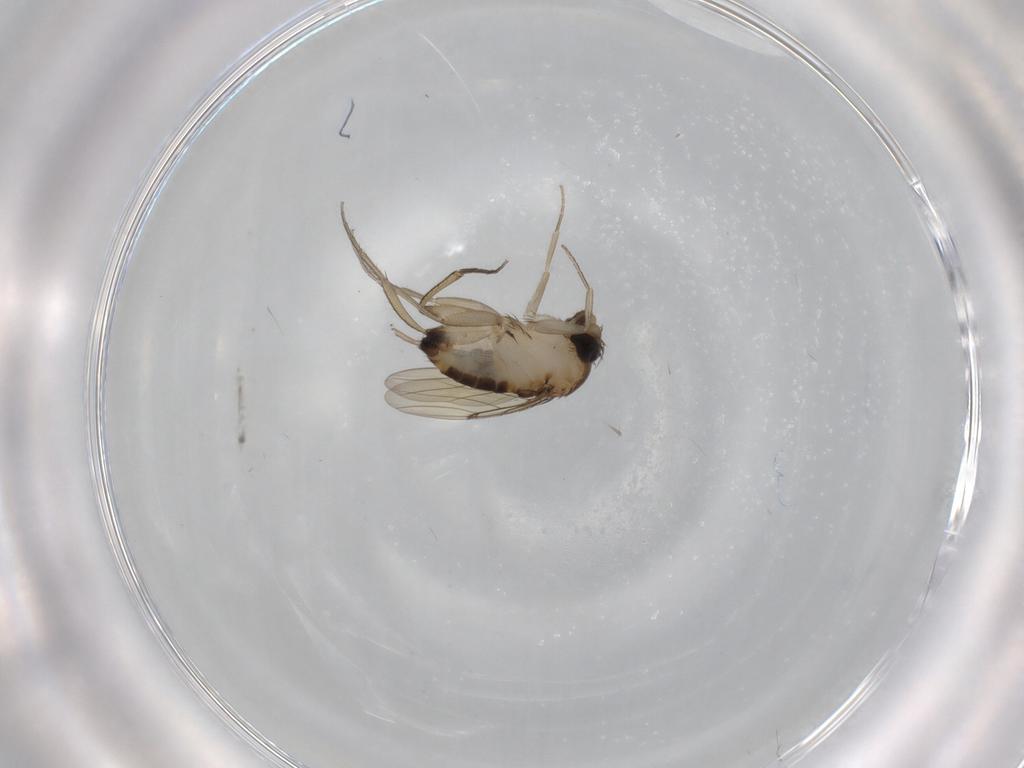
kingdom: Animalia
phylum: Arthropoda
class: Insecta
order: Diptera
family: Phoridae
